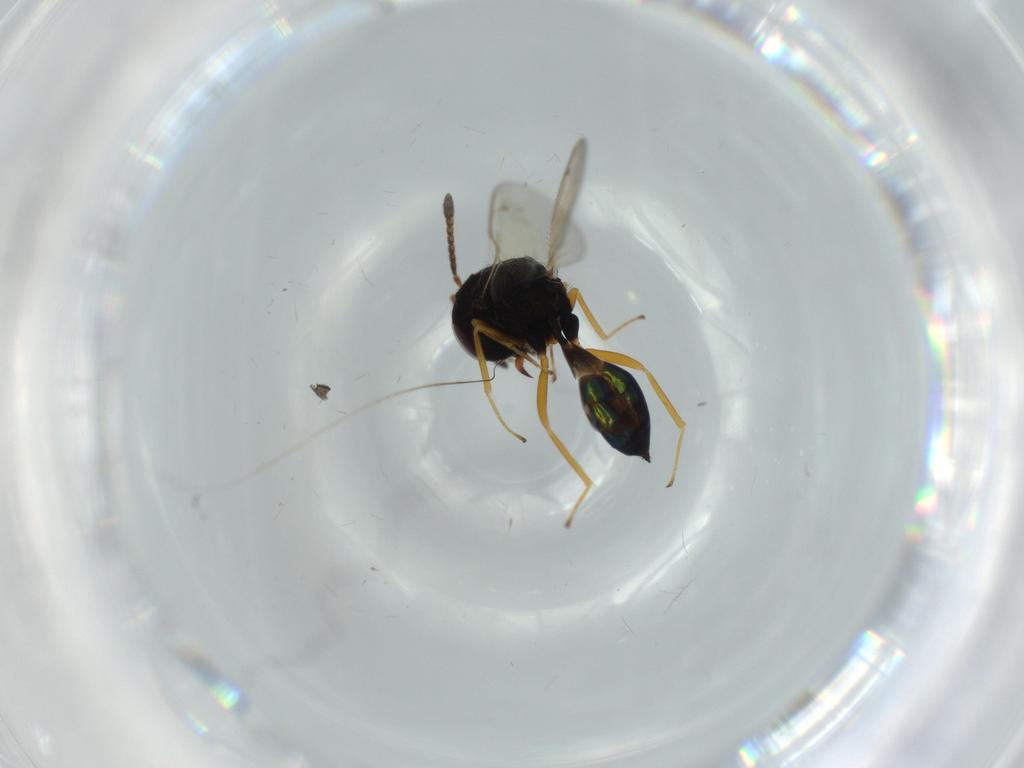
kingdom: Animalia
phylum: Arthropoda
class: Insecta
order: Hymenoptera
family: Pteromalidae
